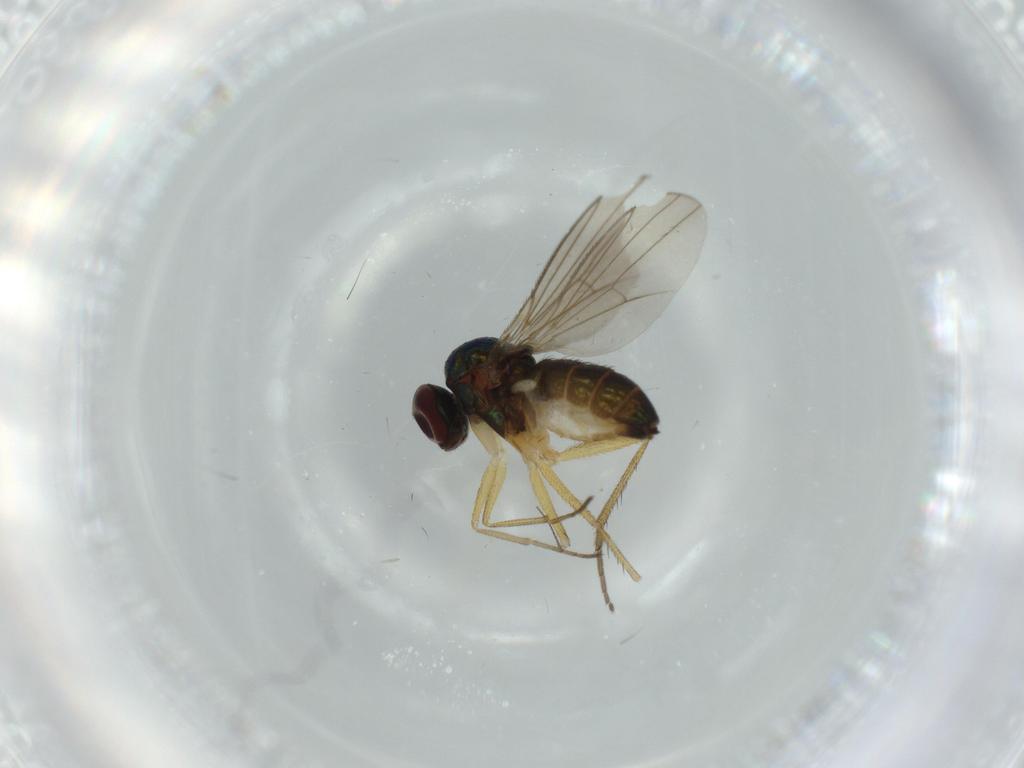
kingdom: Animalia
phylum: Arthropoda
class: Insecta
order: Diptera
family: Chironomidae
